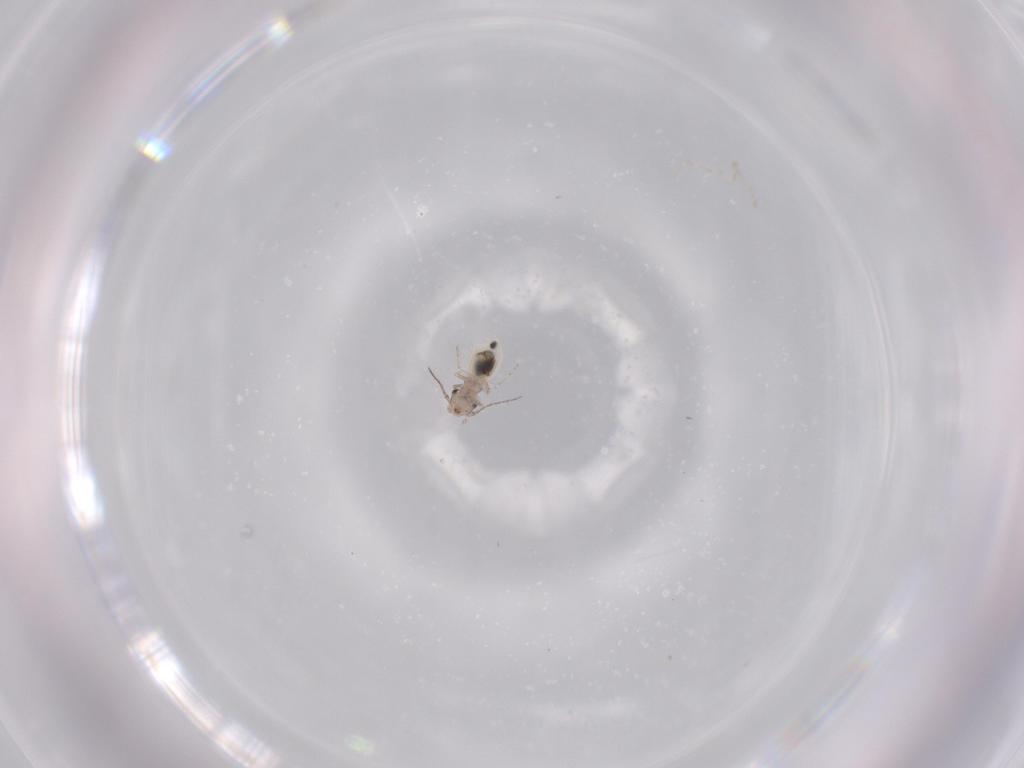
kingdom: Animalia
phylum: Arthropoda
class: Insecta
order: Psocodea
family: Lepidopsocidae
